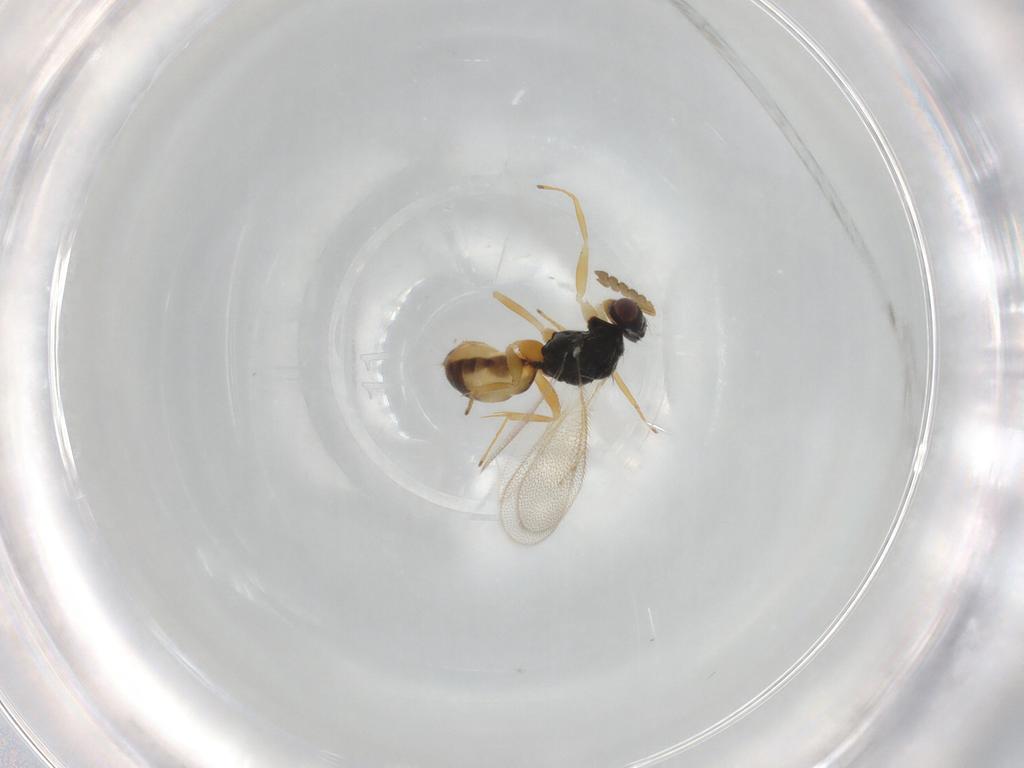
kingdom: Animalia
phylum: Arthropoda
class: Insecta
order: Hymenoptera
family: Eulophidae
